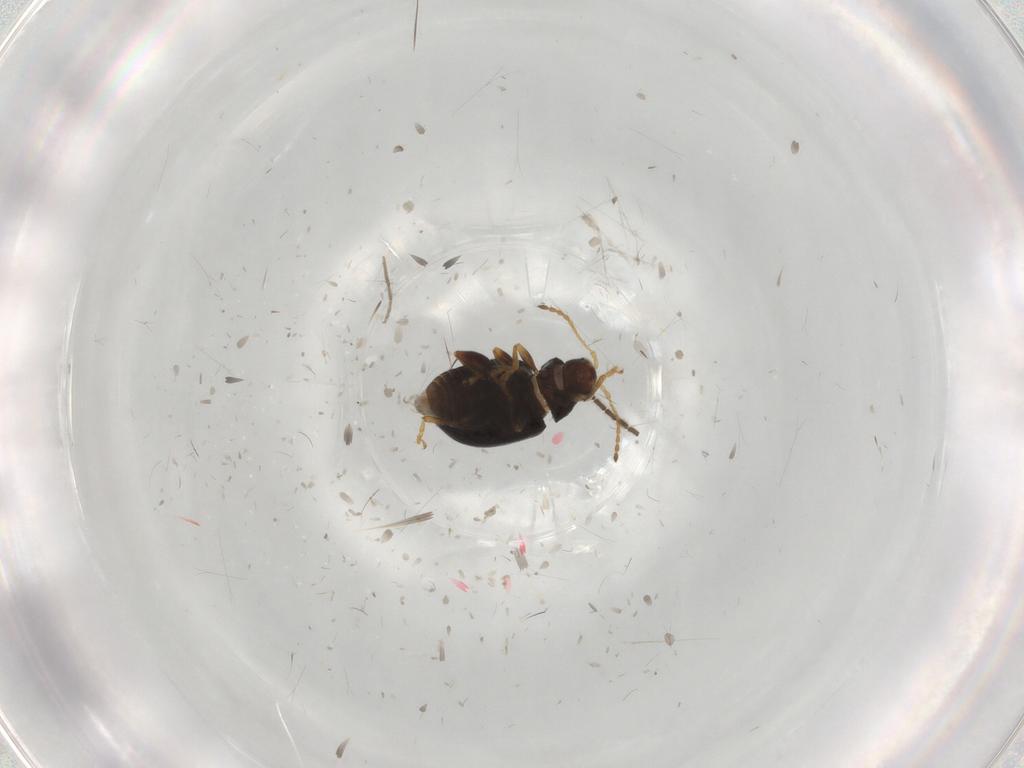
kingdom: Animalia
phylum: Arthropoda
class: Insecta
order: Coleoptera
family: Chrysomelidae
